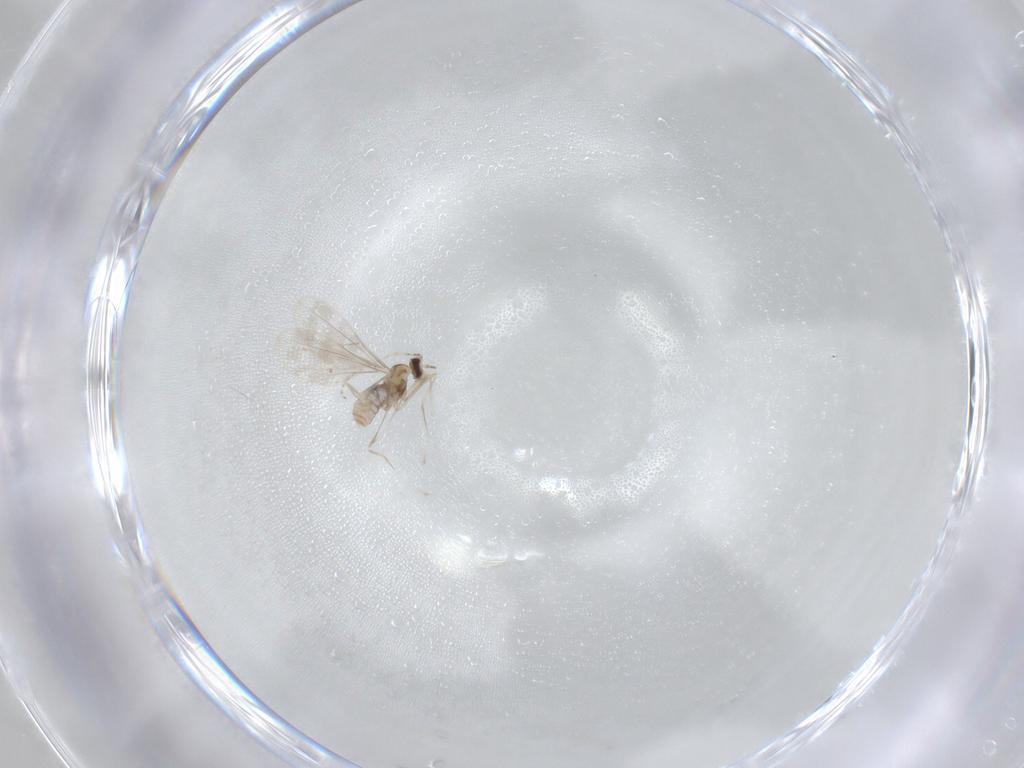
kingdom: Animalia
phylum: Arthropoda
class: Insecta
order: Diptera
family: Cecidomyiidae
